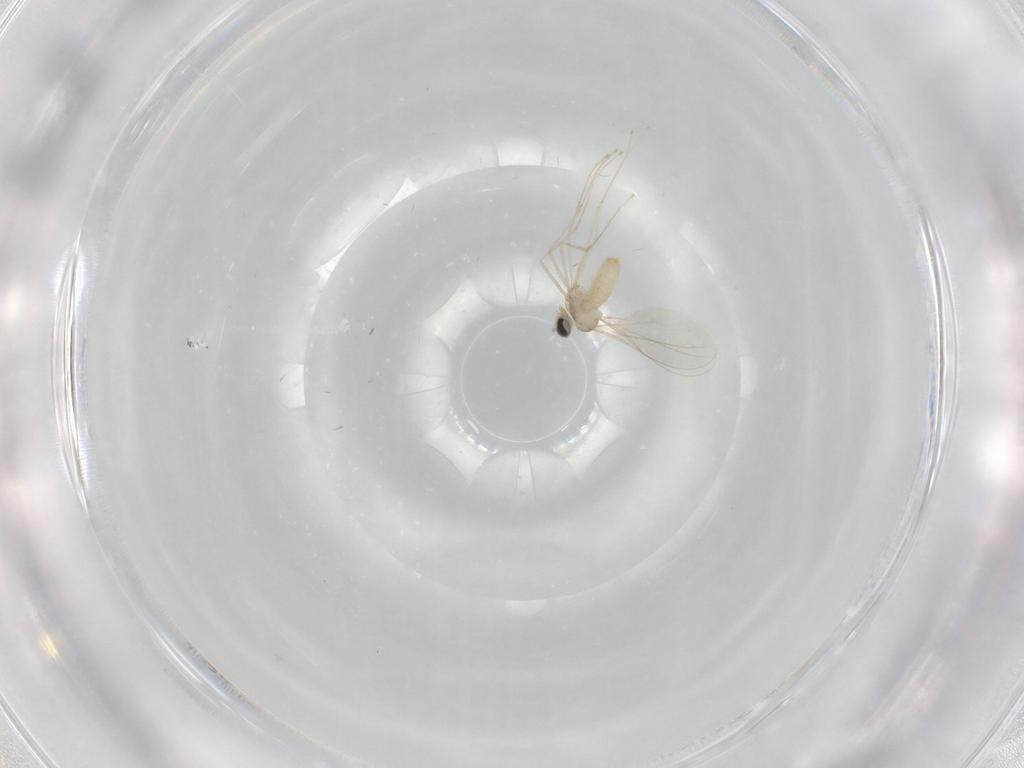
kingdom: Animalia
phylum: Arthropoda
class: Insecta
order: Diptera
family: Cecidomyiidae
